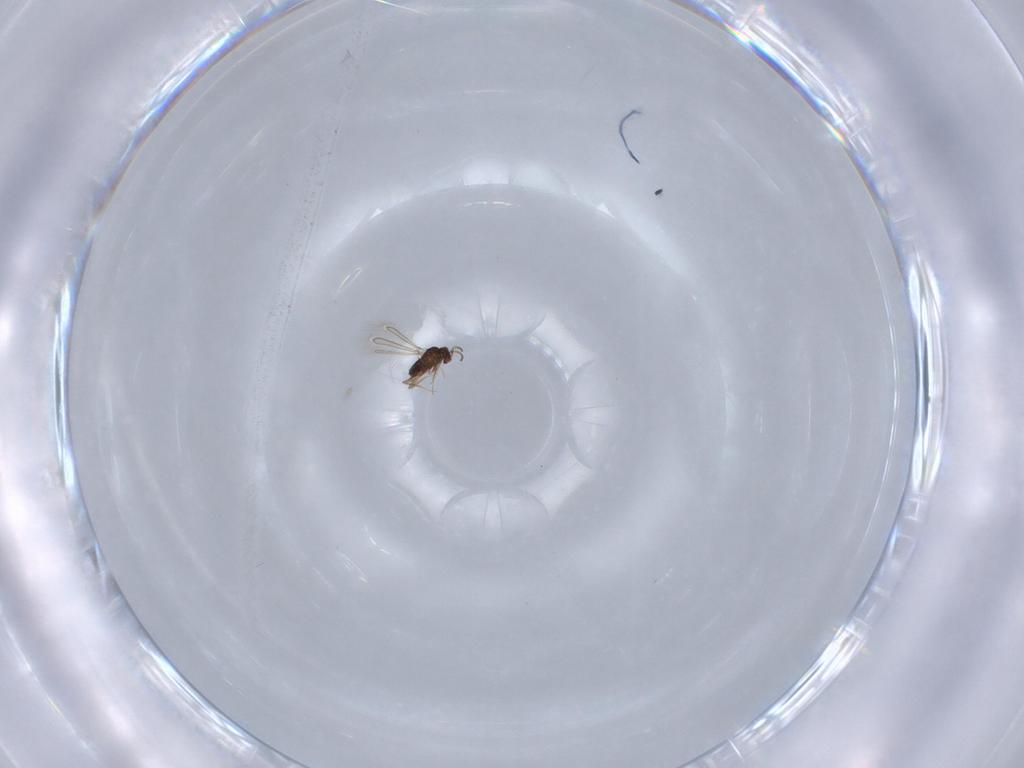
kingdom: Animalia
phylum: Arthropoda
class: Insecta
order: Hymenoptera
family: Ichneumonidae
